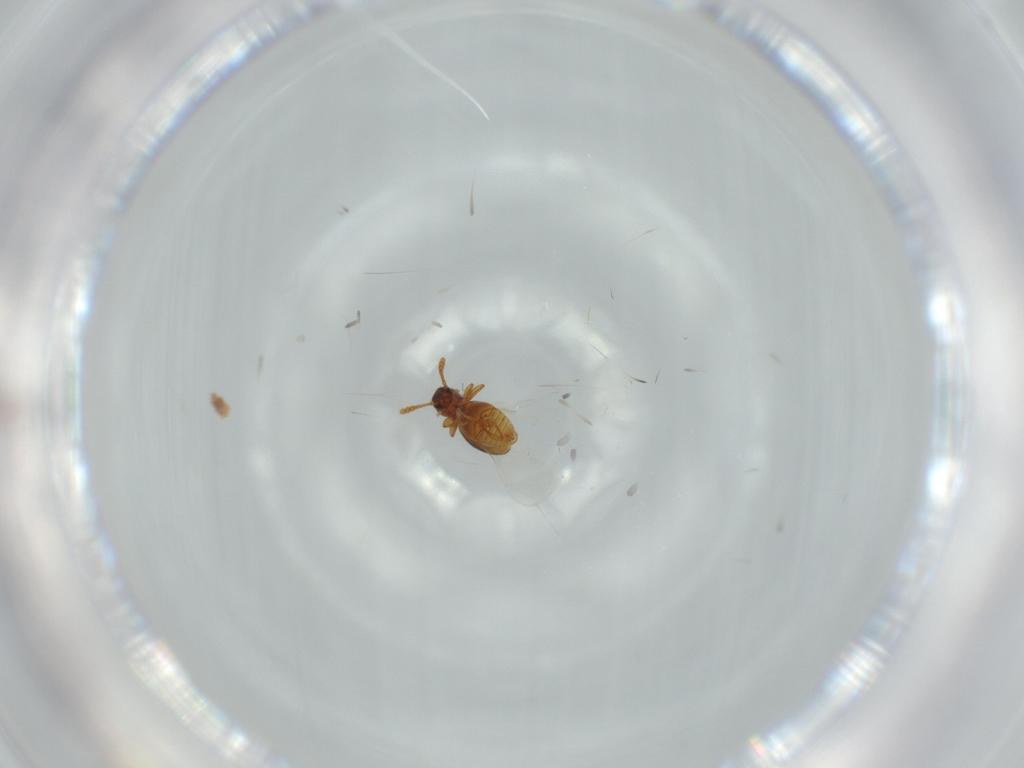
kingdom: Animalia
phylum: Arthropoda
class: Insecta
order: Coleoptera
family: Staphylinidae
